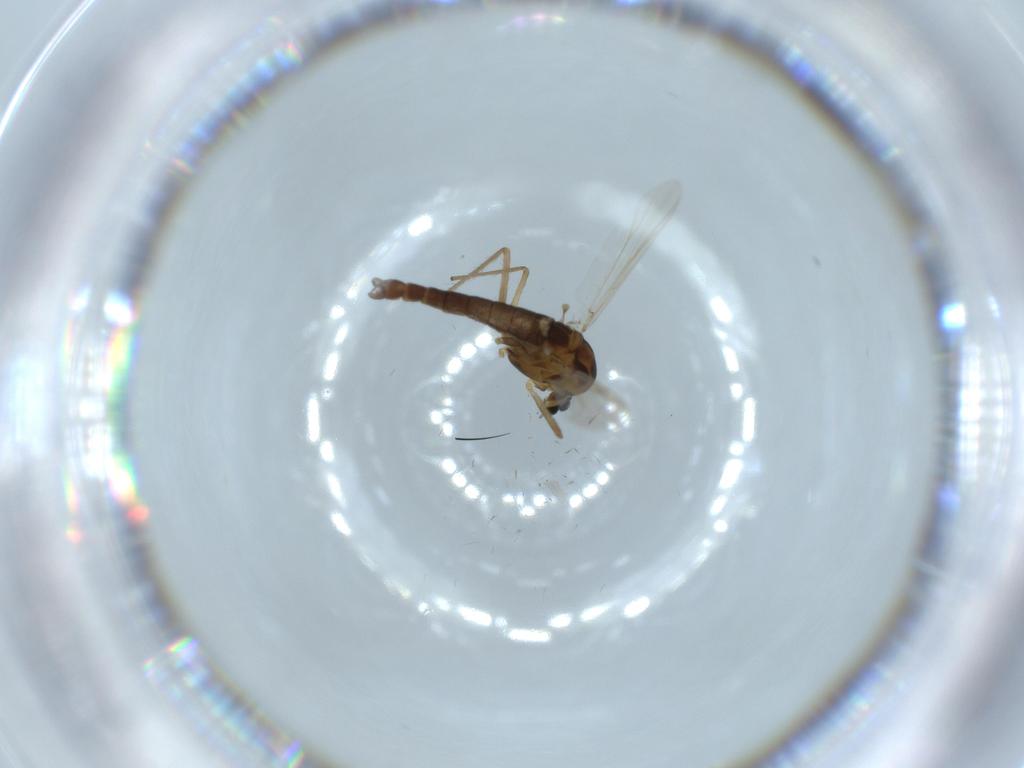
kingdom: Animalia
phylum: Arthropoda
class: Insecta
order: Diptera
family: Chironomidae
